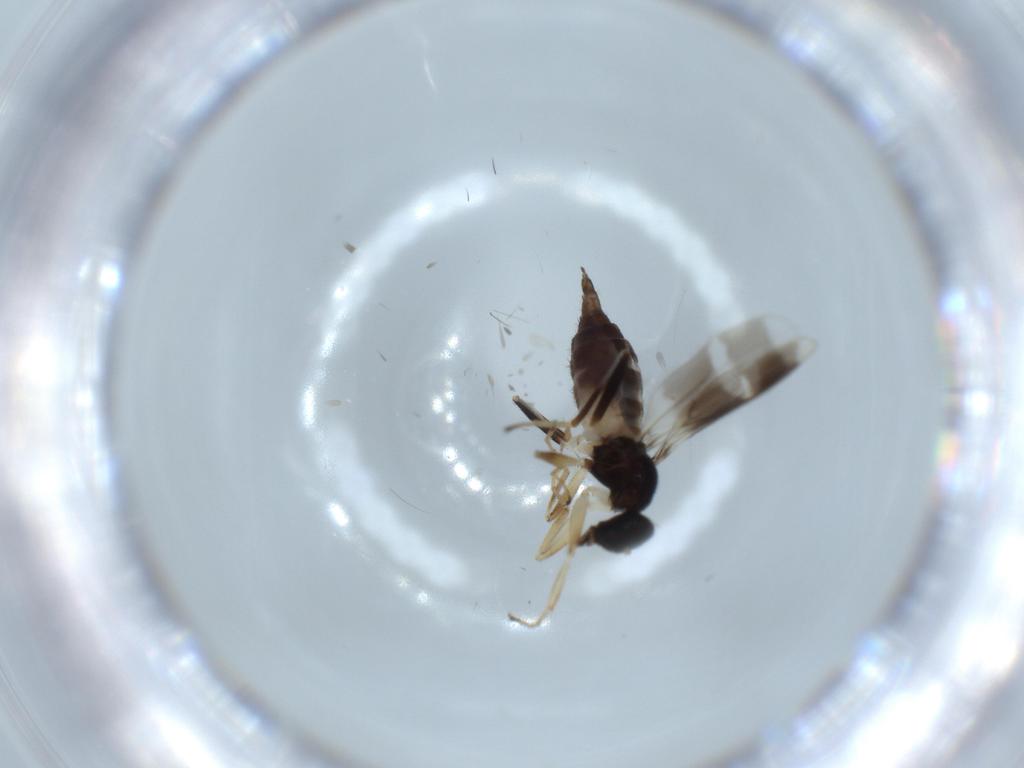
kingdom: Animalia
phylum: Arthropoda
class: Insecta
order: Diptera
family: Hybotidae
